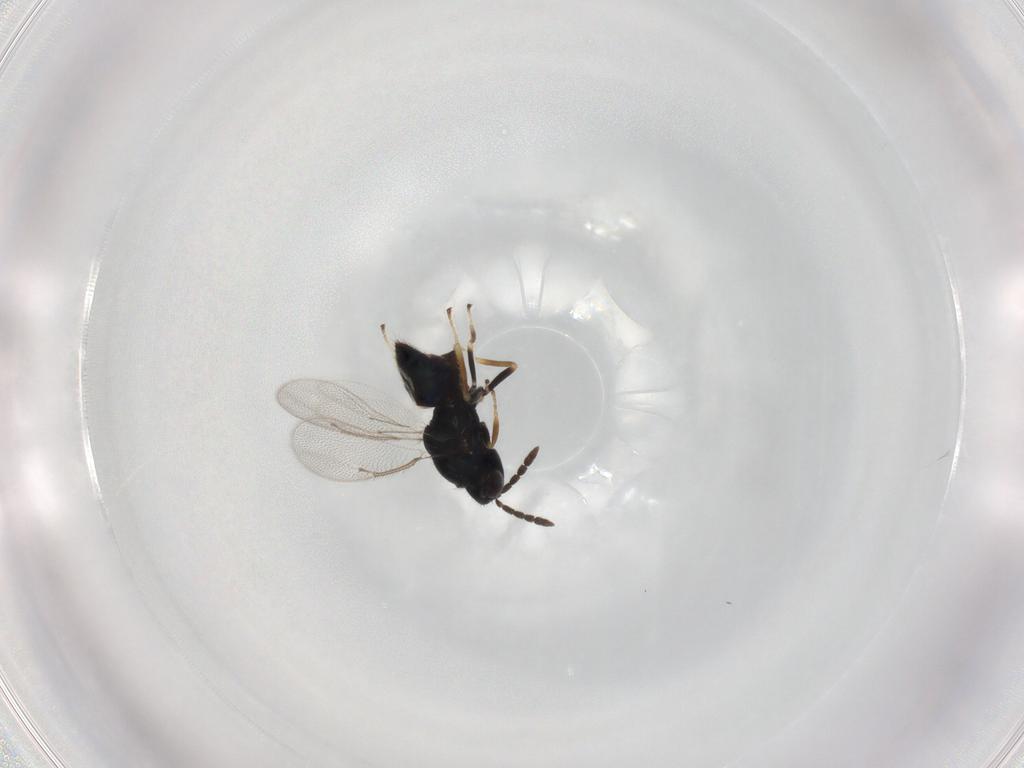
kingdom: Animalia
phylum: Arthropoda
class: Insecta
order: Hymenoptera
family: Eulophidae
